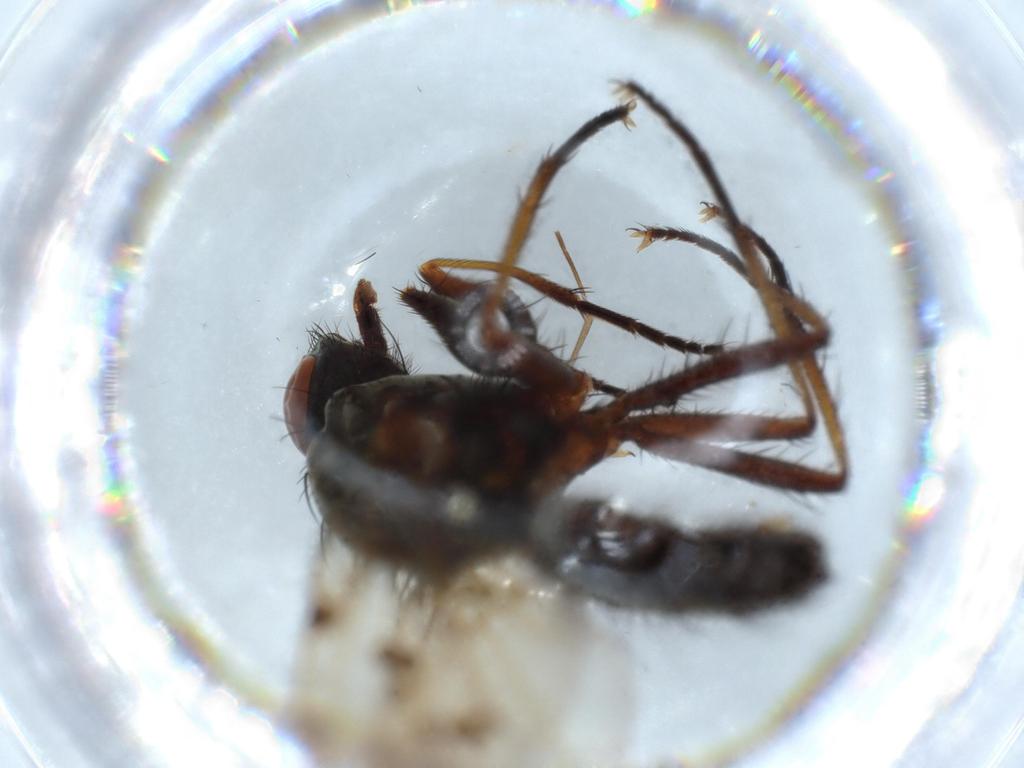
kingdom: Animalia
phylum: Arthropoda
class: Insecta
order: Diptera
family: Anthomyiidae
